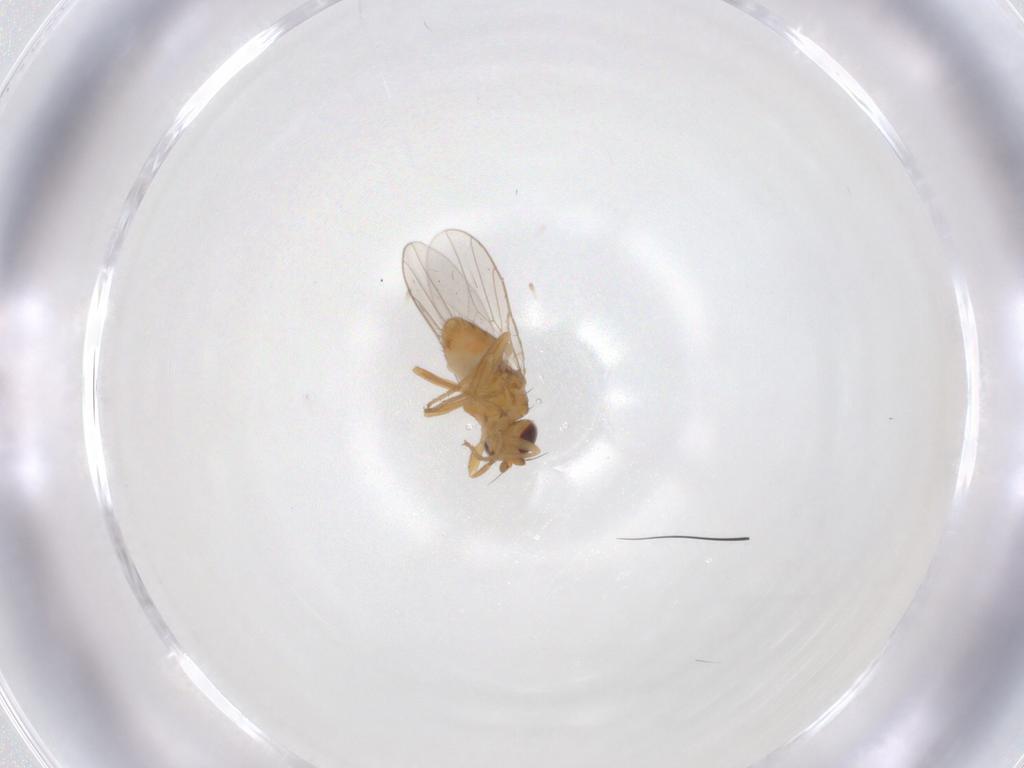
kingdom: Animalia
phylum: Arthropoda
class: Insecta
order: Diptera
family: Chloropidae
